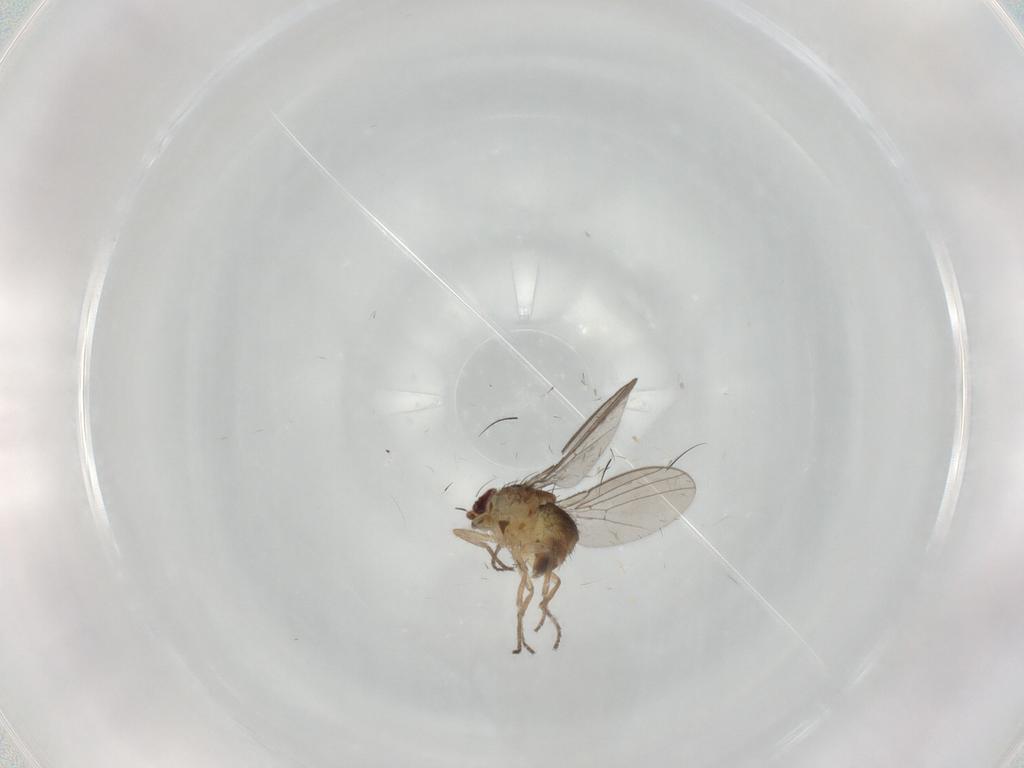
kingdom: Animalia
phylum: Arthropoda
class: Insecta
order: Diptera
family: Agromyzidae
